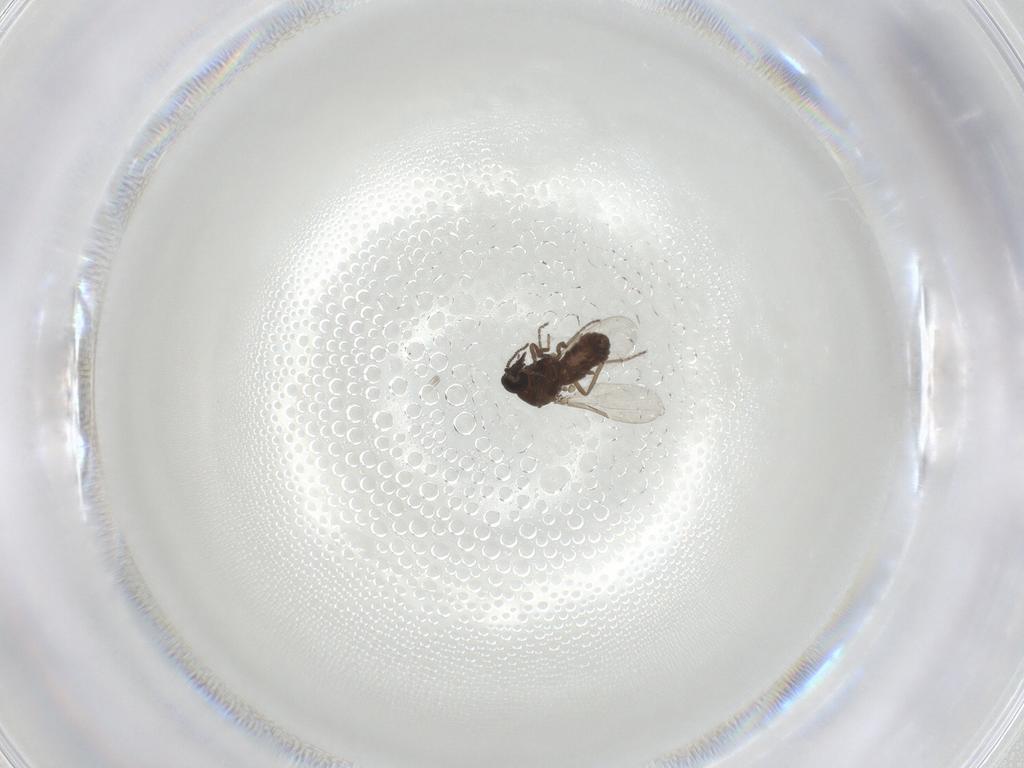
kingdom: Animalia
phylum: Arthropoda
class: Insecta
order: Diptera
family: Ceratopogonidae
